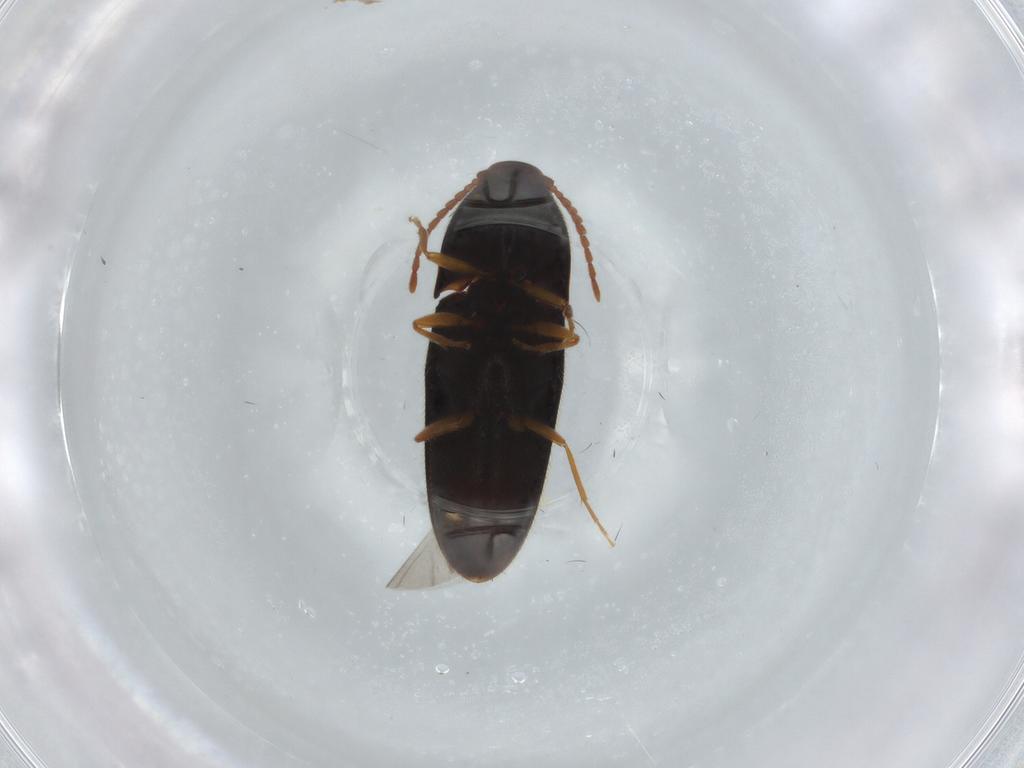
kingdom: Animalia
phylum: Arthropoda
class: Insecta
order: Coleoptera
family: Elateridae
